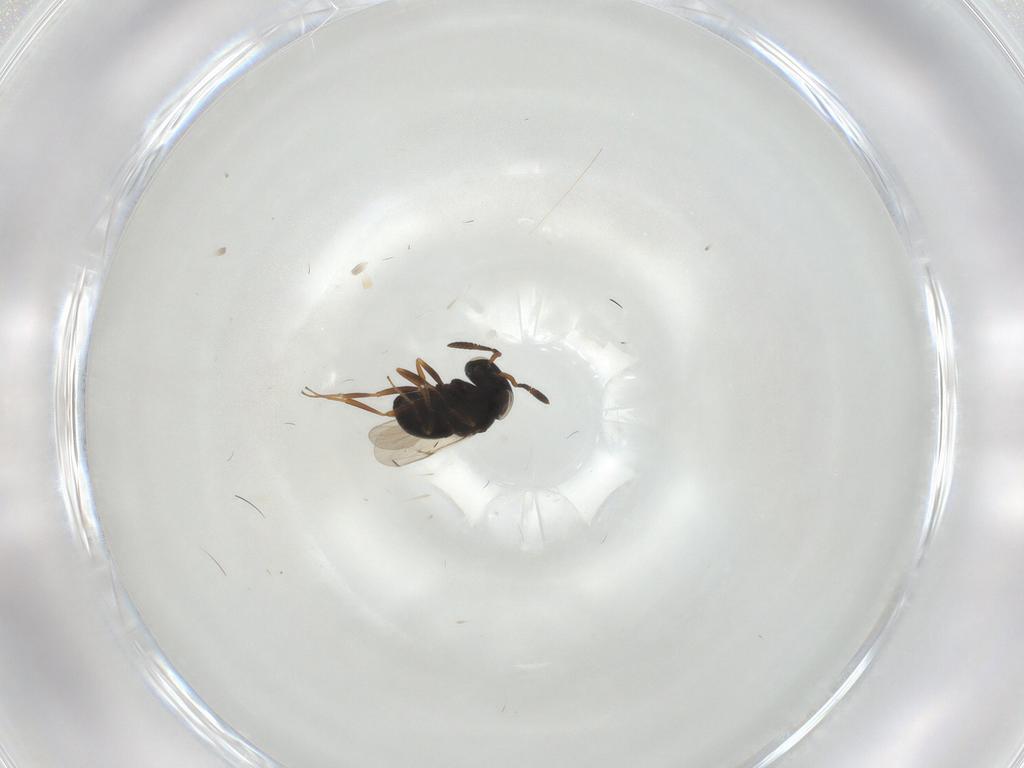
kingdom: Animalia
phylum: Arthropoda
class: Insecta
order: Hymenoptera
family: Scelionidae
